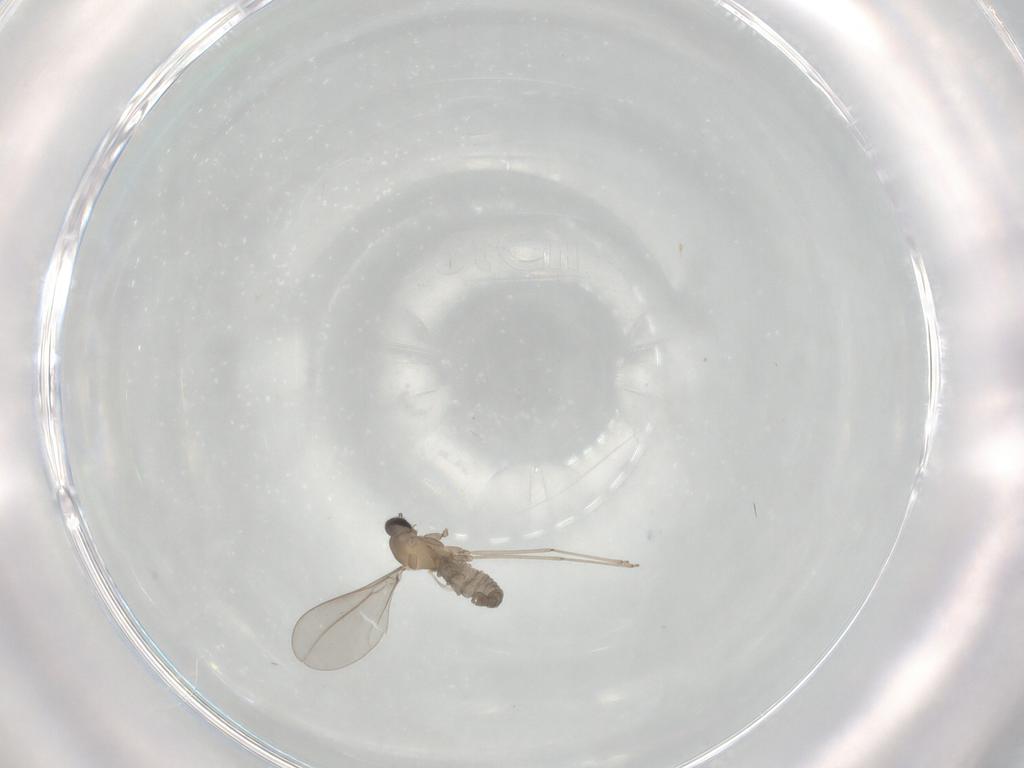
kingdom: Animalia
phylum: Arthropoda
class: Insecta
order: Diptera
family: Cecidomyiidae
